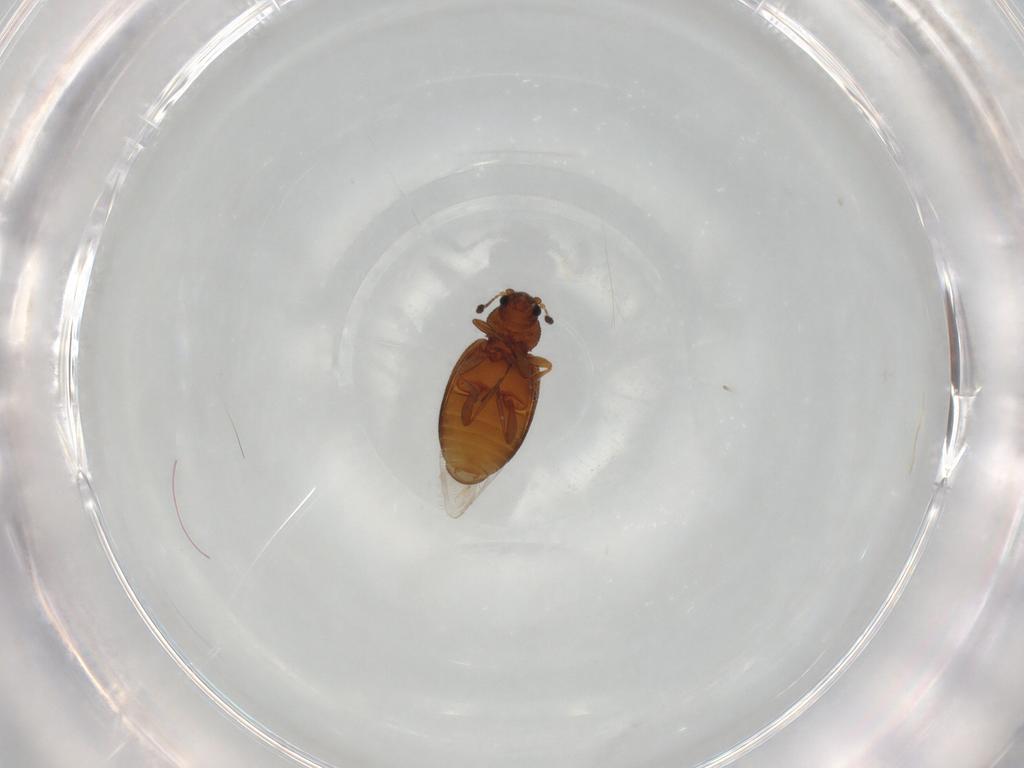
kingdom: Animalia
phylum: Arthropoda
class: Insecta
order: Coleoptera
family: Latridiidae
